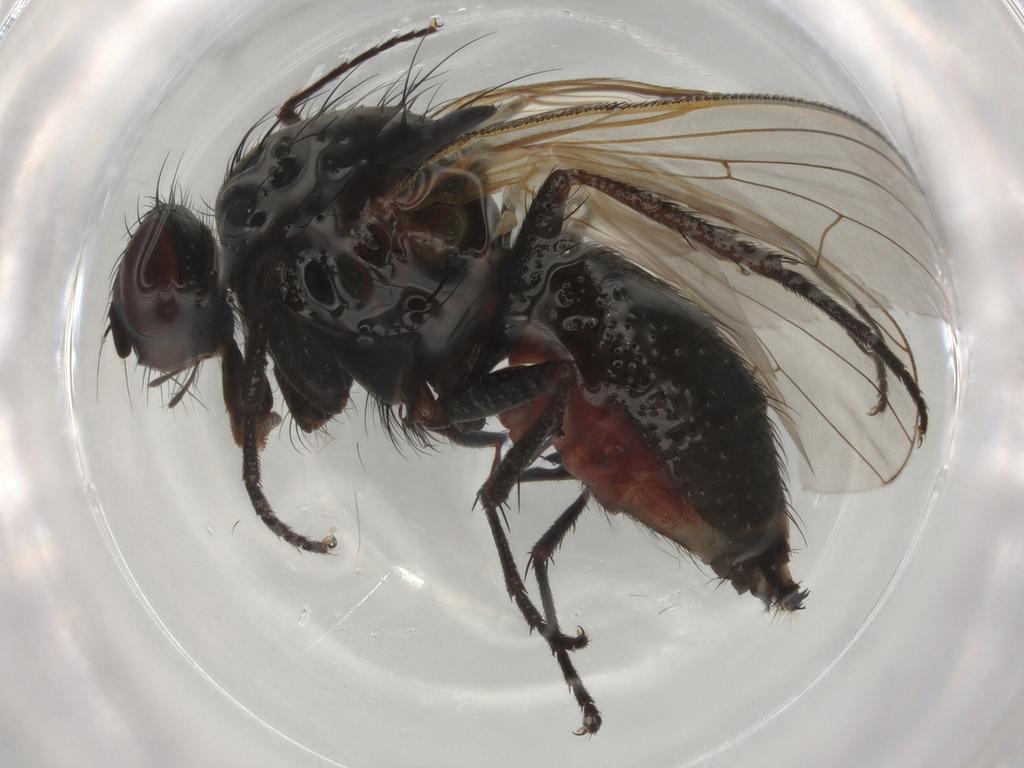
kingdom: Animalia
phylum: Arthropoda
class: Insecta
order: Diptera
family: Anthomyiidae
